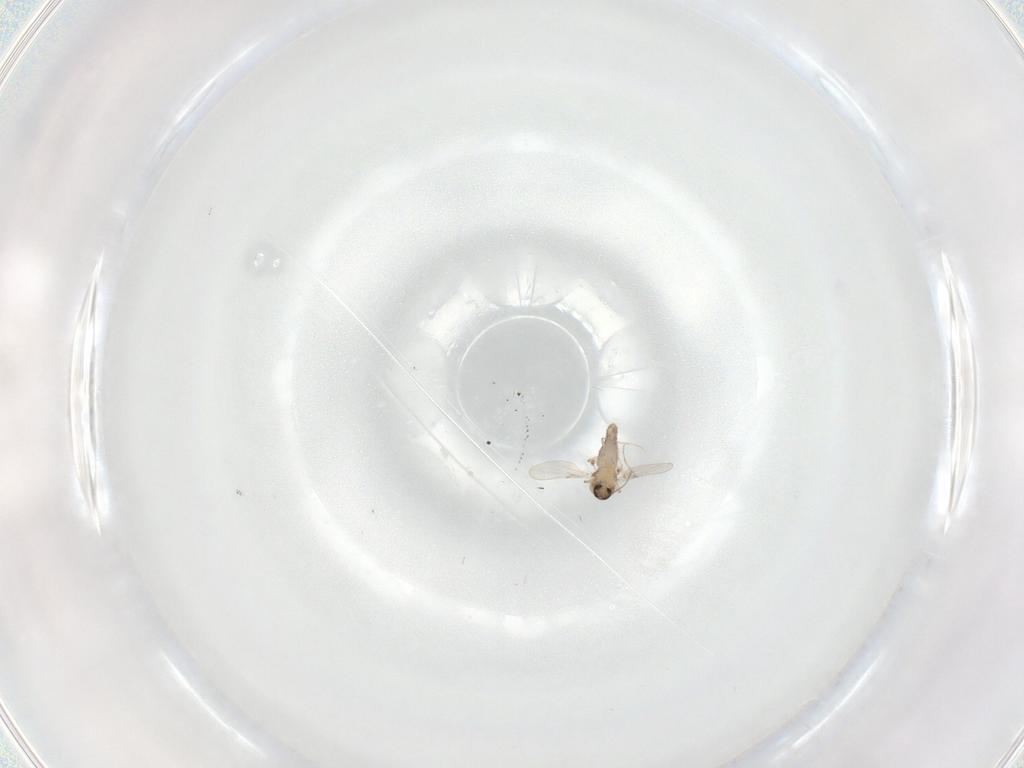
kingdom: Animalia
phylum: Arthropoda
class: Insecta
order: Diptera
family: Ceratopogonidae
